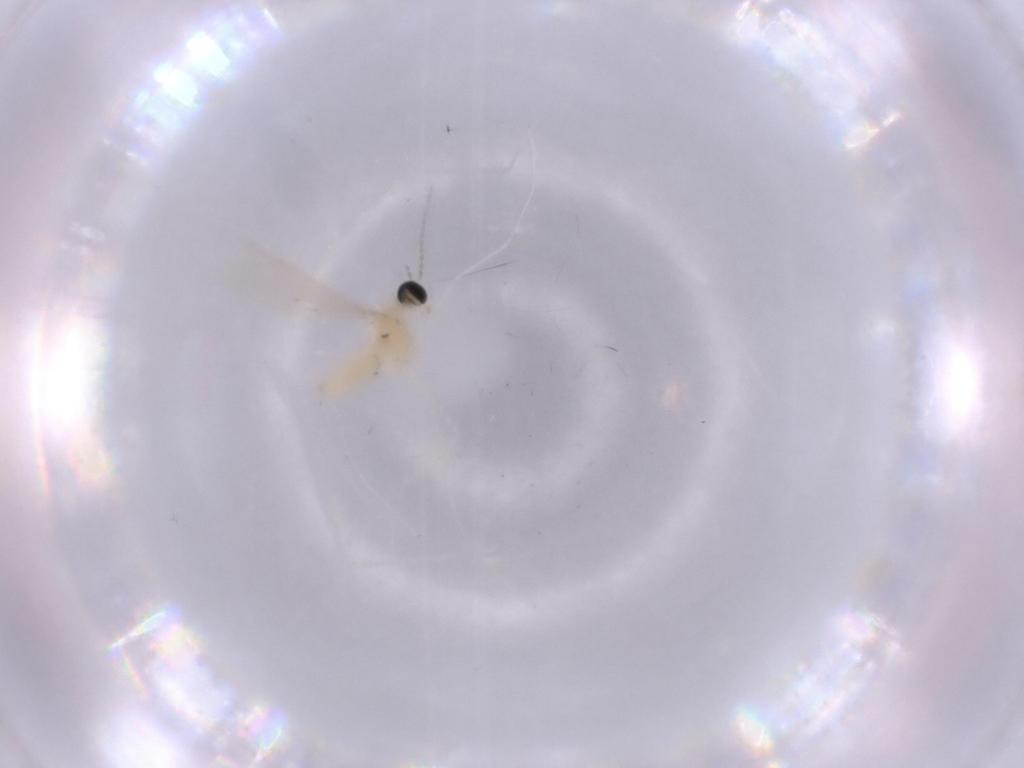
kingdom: Animalia
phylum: Arthropoda
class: Insecta
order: Diptera
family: Cecidomyiidae
